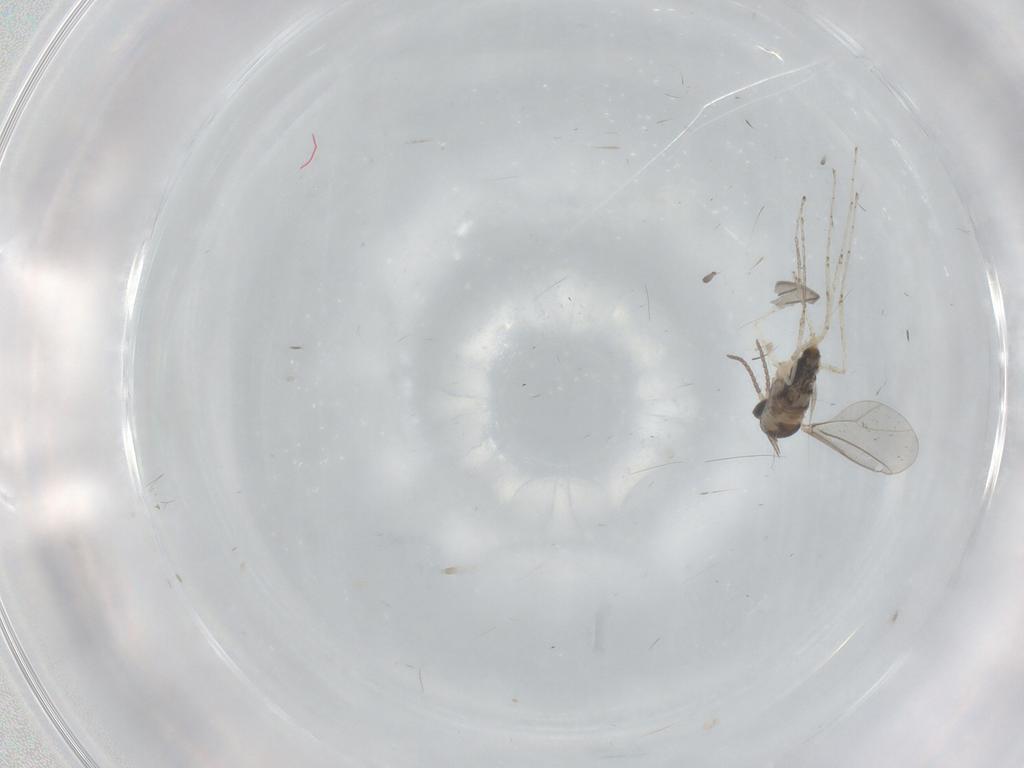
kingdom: Animalia
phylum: Arthropoda
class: Insecta
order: Diptera
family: Cecidomyiidae
